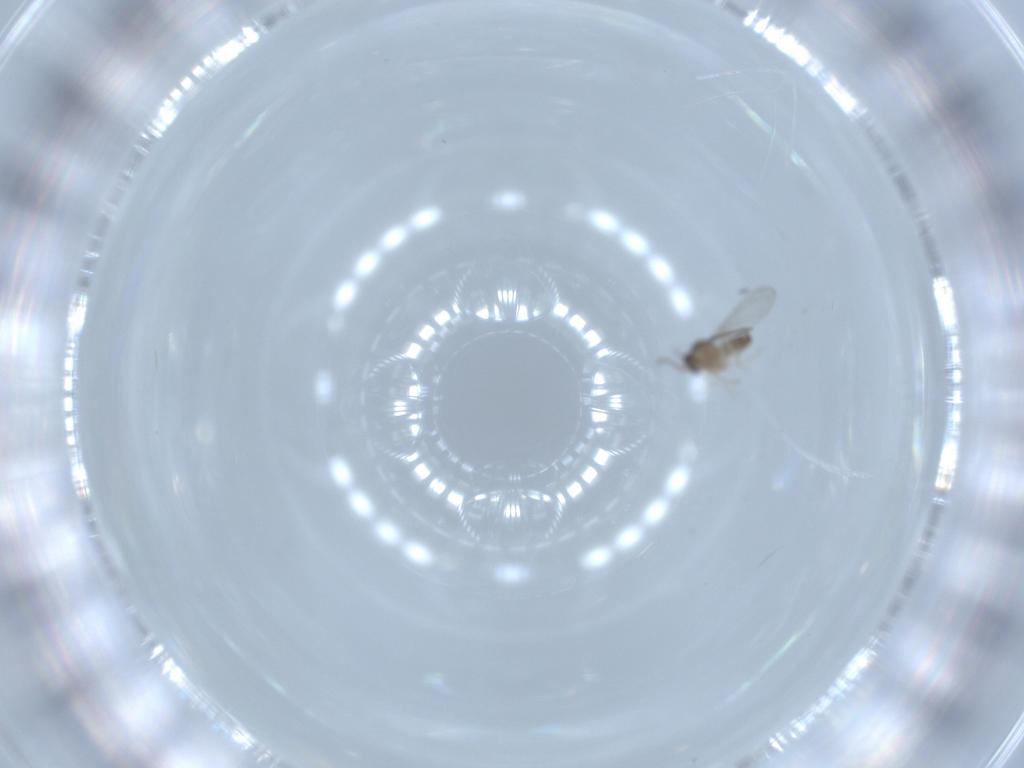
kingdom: Animalia
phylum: Arthropoda
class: Insecta
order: Diptera
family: Cecidomyiidae
